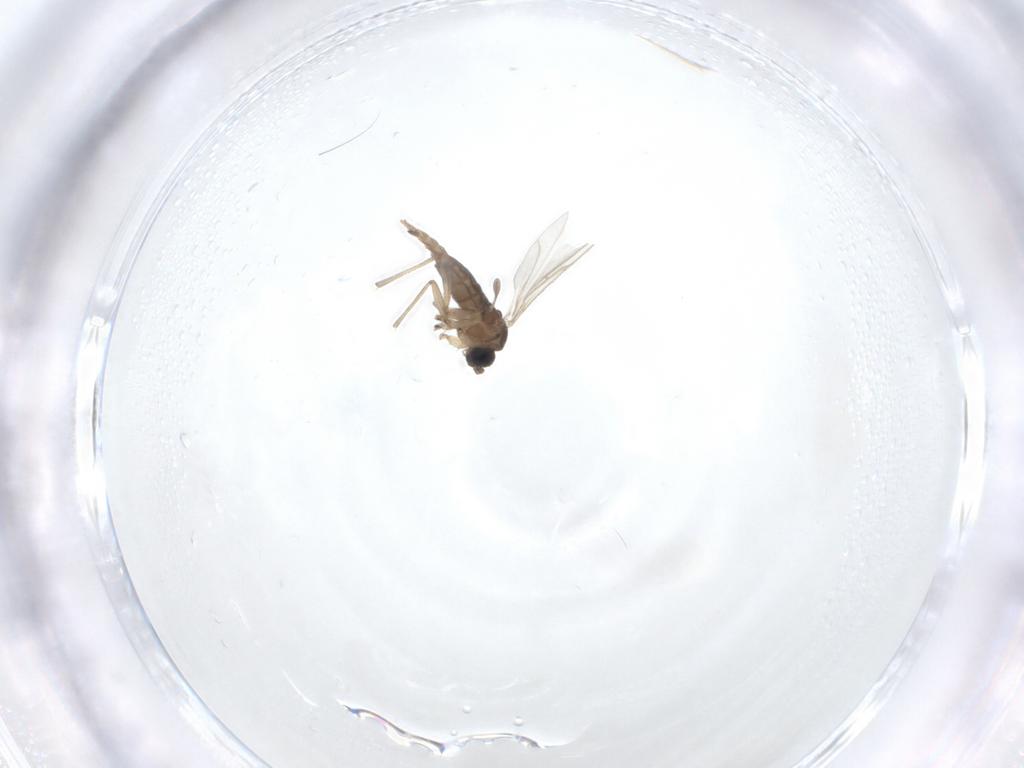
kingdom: Animalia
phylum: Arthropoda
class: Insecta
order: Diptera
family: Sciaridae
